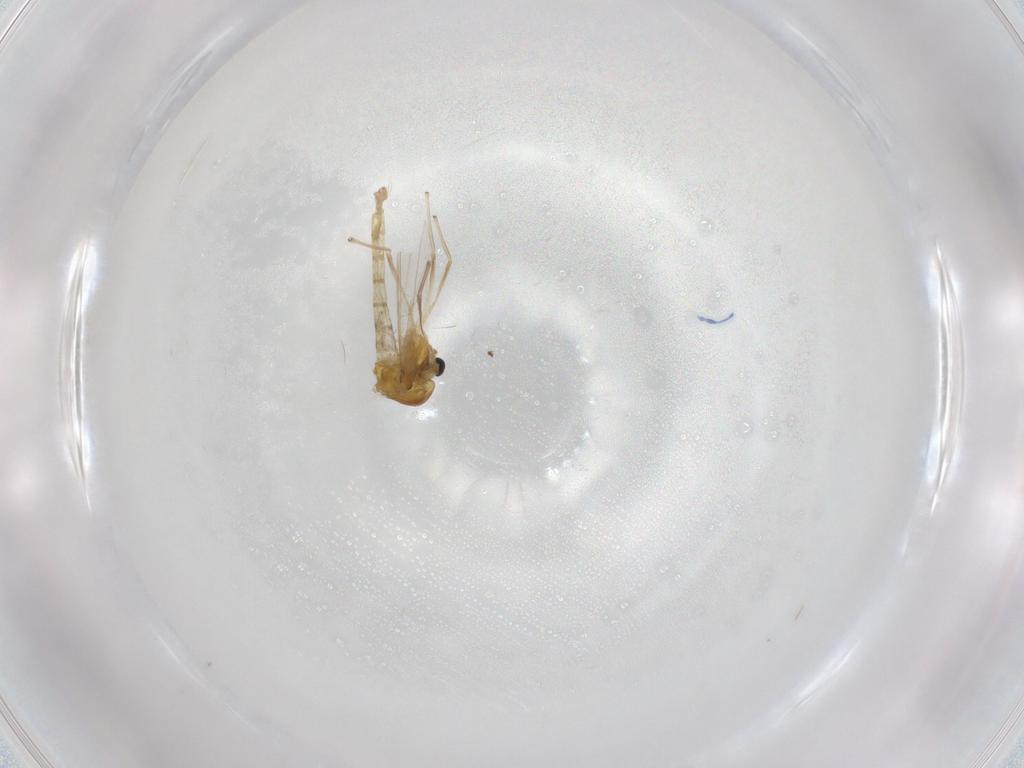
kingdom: Animalia
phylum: Arthropoda
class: Insecta
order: Diptera
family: Chironomidae
